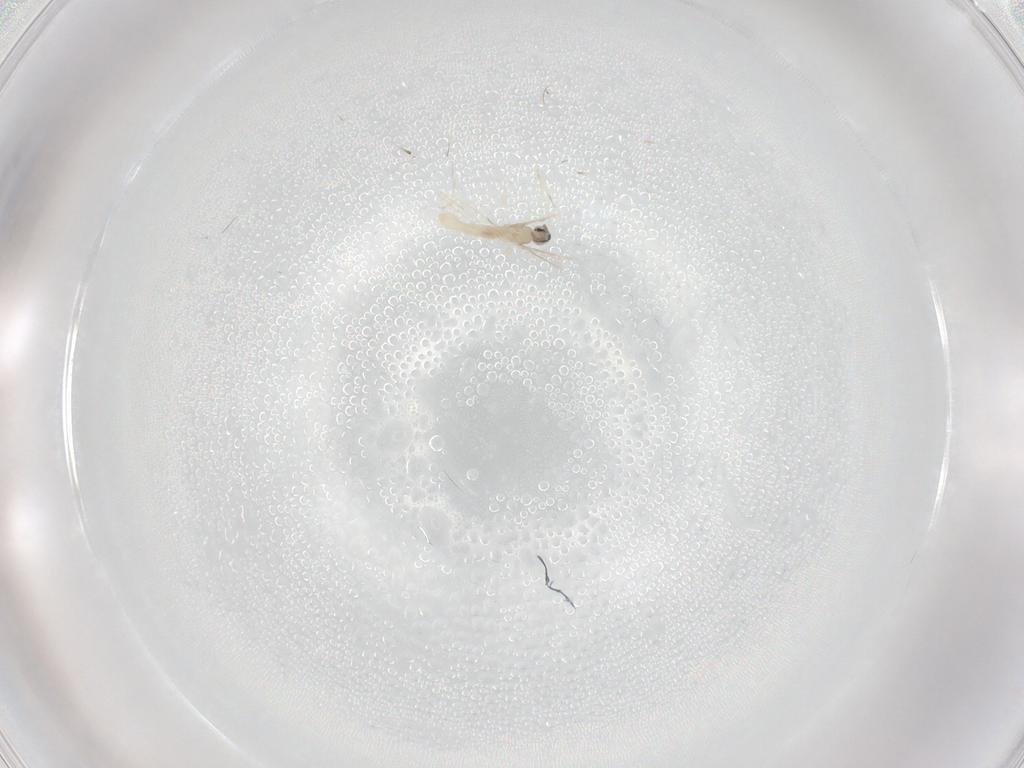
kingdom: Animalia
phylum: Arthropoda
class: Insecta
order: Diptera
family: Cecidomyiidae
